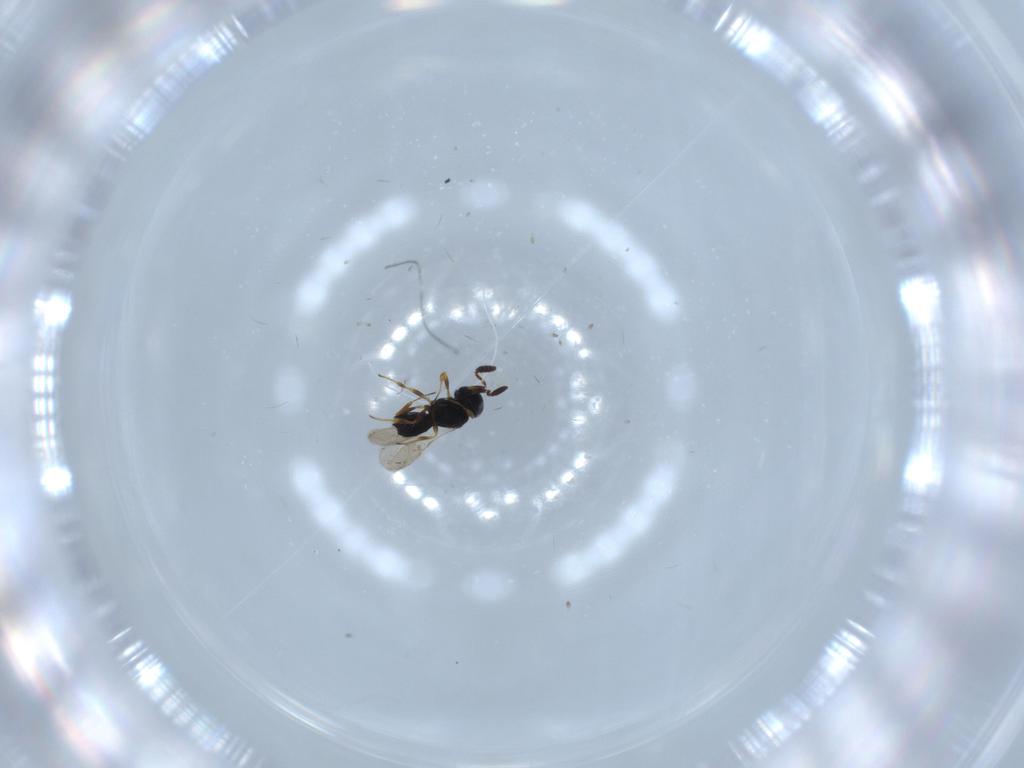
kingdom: Animalia
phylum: Arthropoda
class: Insecta
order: Hymenoptera
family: Scelionidae
